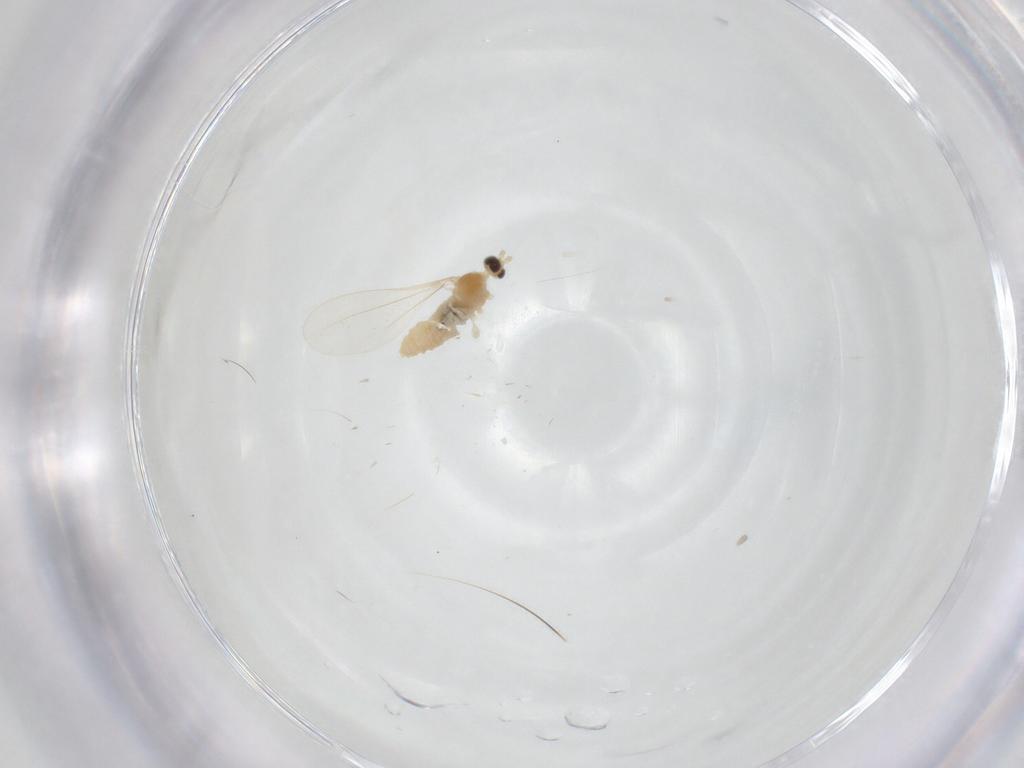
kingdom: Animalia
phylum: Arthropoda
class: Insecta
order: Diptera
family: Cecidomyiidae
